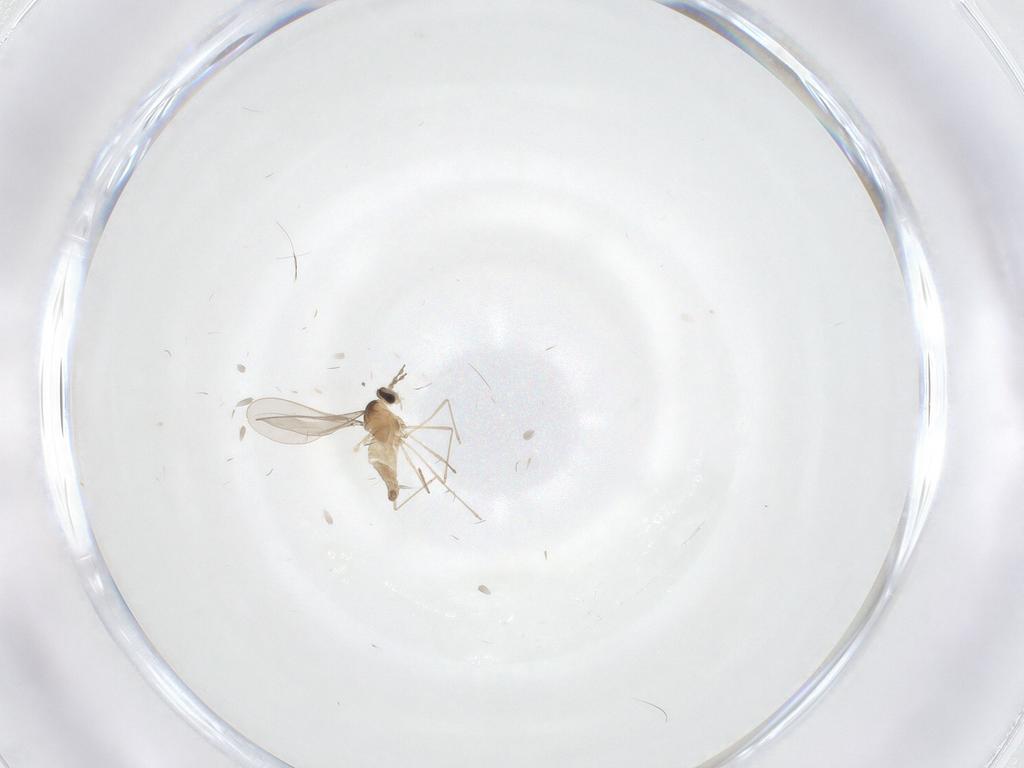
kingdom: Animalia
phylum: Arthropoda
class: Insecta
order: Diptera
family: Cecidomyiidae
